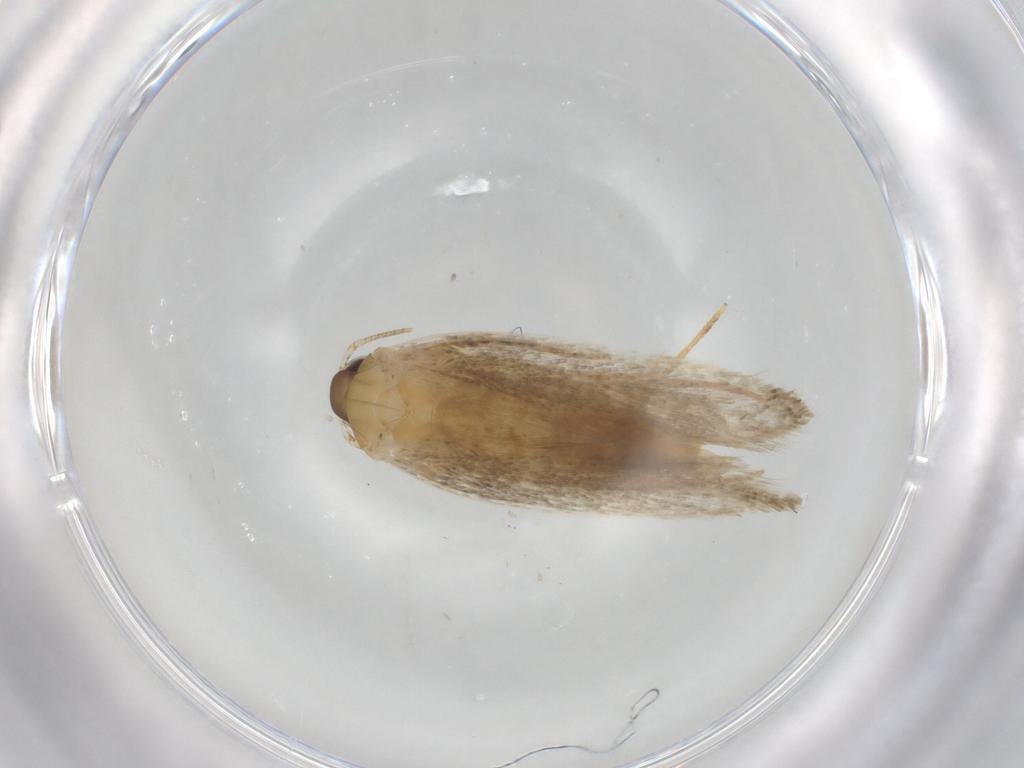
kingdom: Animalia
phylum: Arthropoda
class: Insecta
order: Lepidoptera
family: Autostichidae
